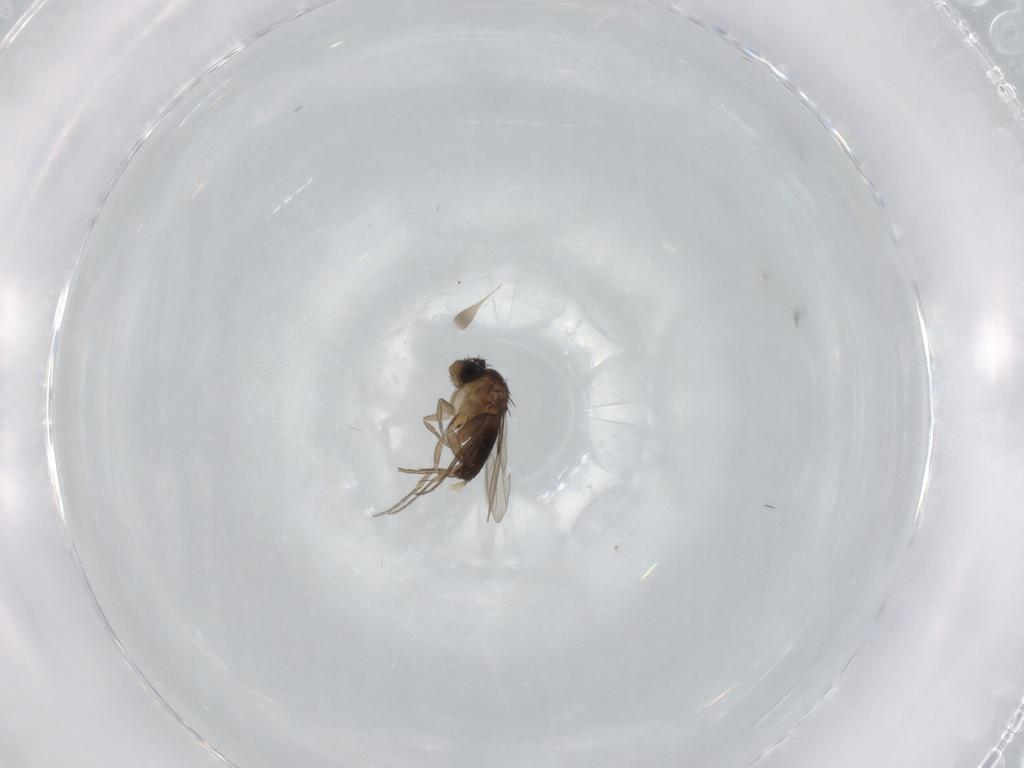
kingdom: Animalia
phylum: Arthropoda
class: Insecta
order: Diptera
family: Phoridae
